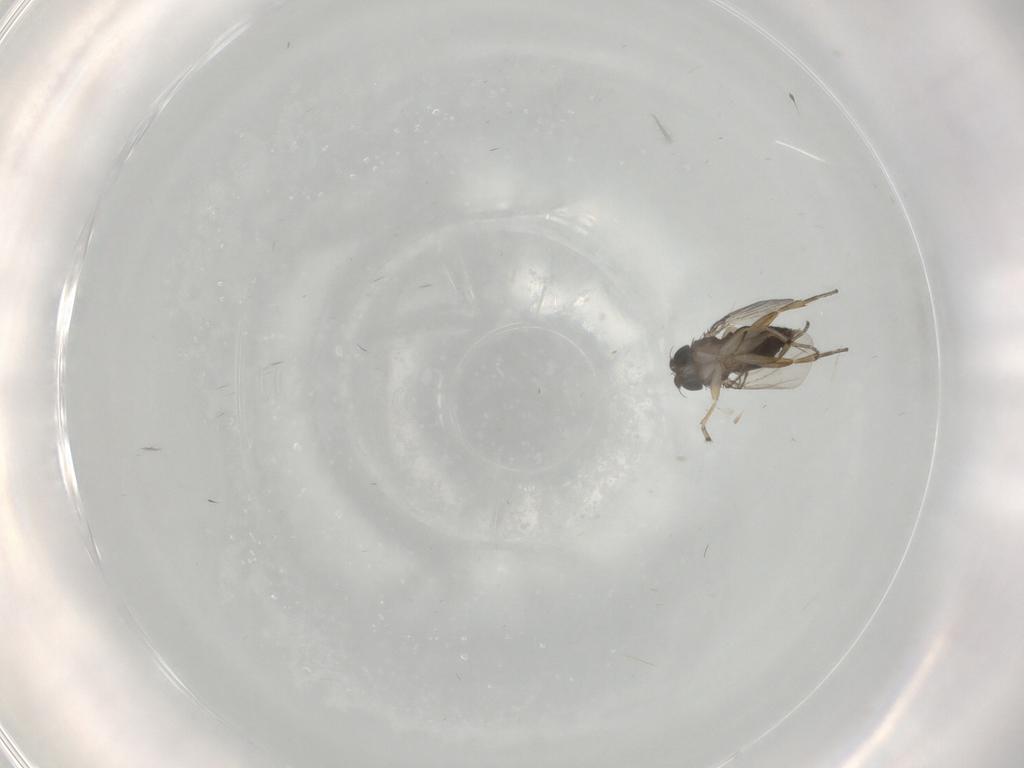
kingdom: Animalia
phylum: Arthropoda
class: Insecta
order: Diptera
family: Phoridae
